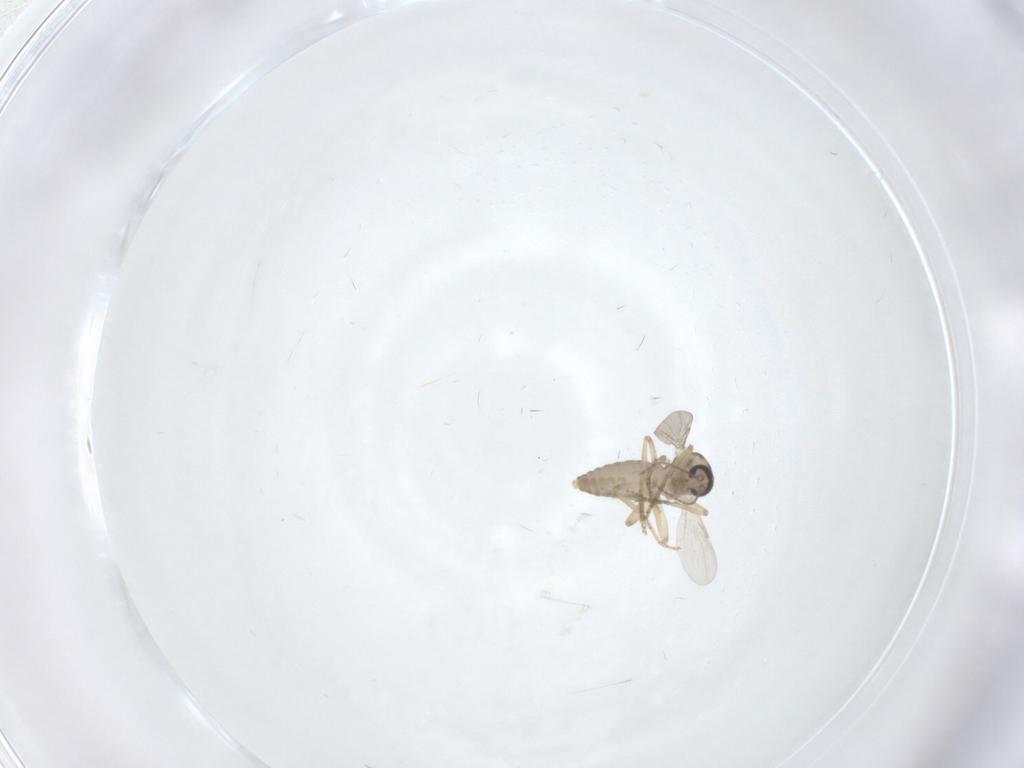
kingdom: Animalia
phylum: Arthropoda
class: Insecta
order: Diptera
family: Ceratopogonidae
